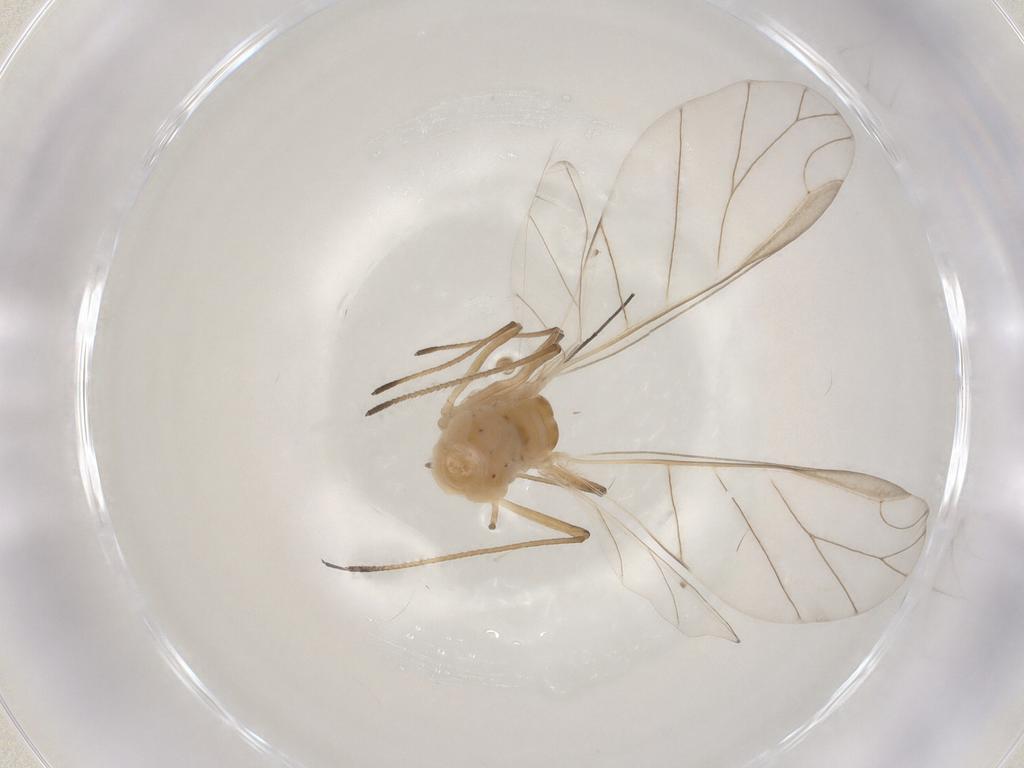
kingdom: Animalia
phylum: Arthropoda
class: Insecta
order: Hemiptera
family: Aphididae
